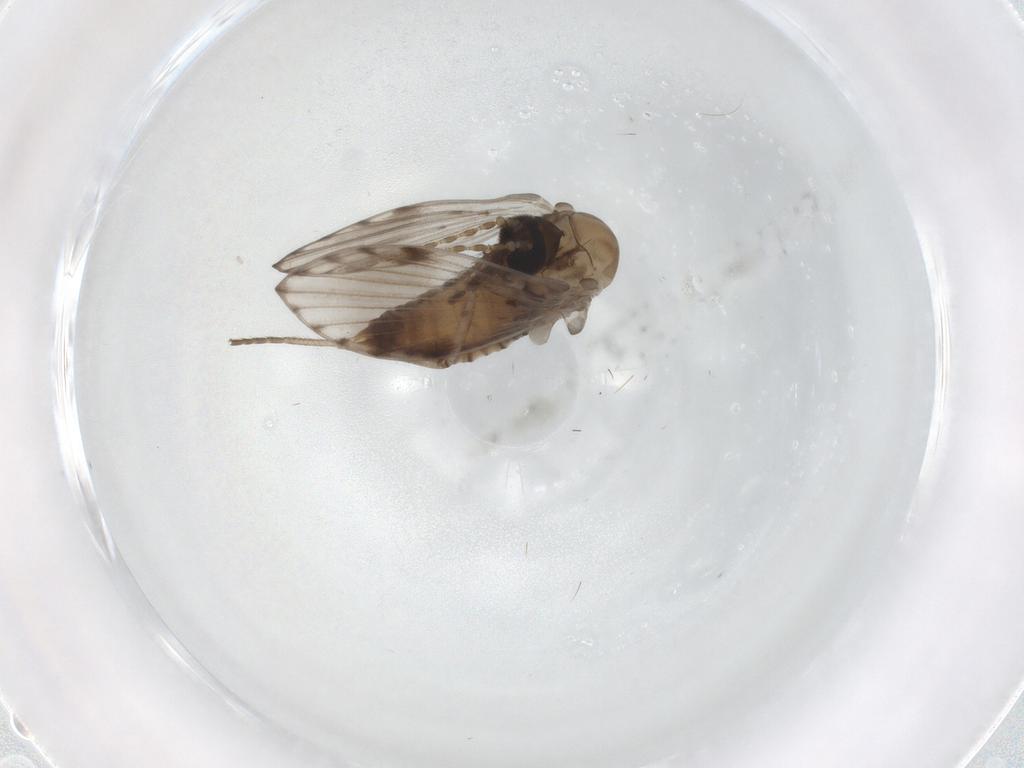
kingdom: Animalia
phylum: Arthropoda
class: Insecta
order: Diptera
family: Psychodidae
